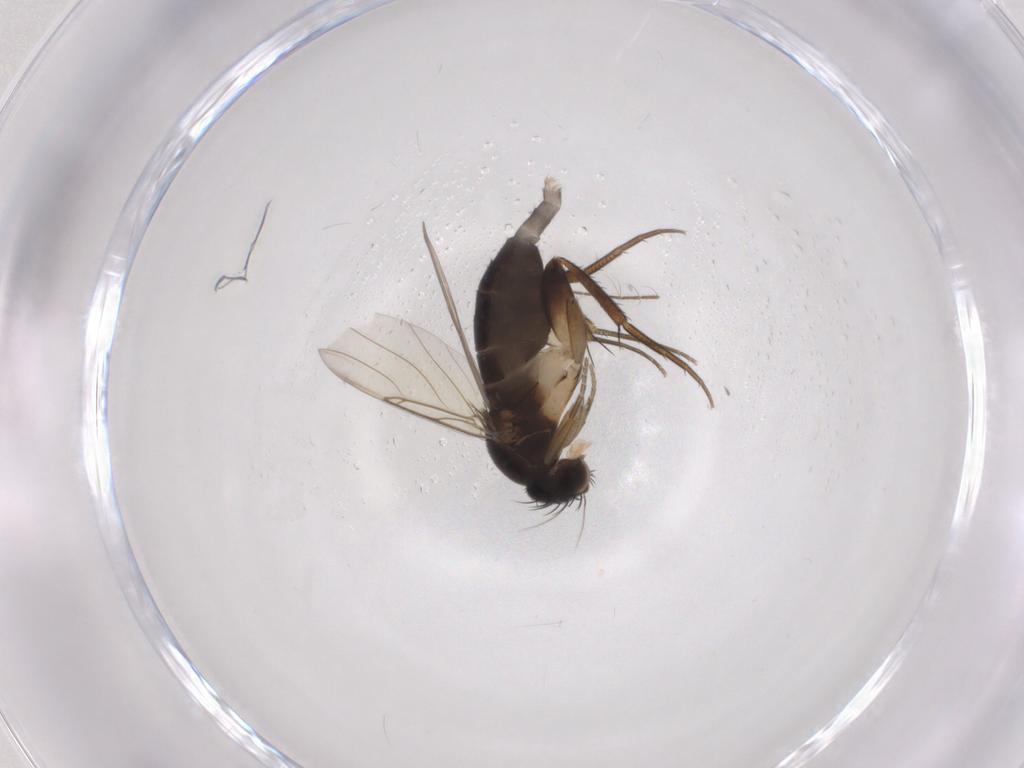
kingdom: Animalia
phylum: Arthropoda
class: Insecta
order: Diptera
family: Phoridae
